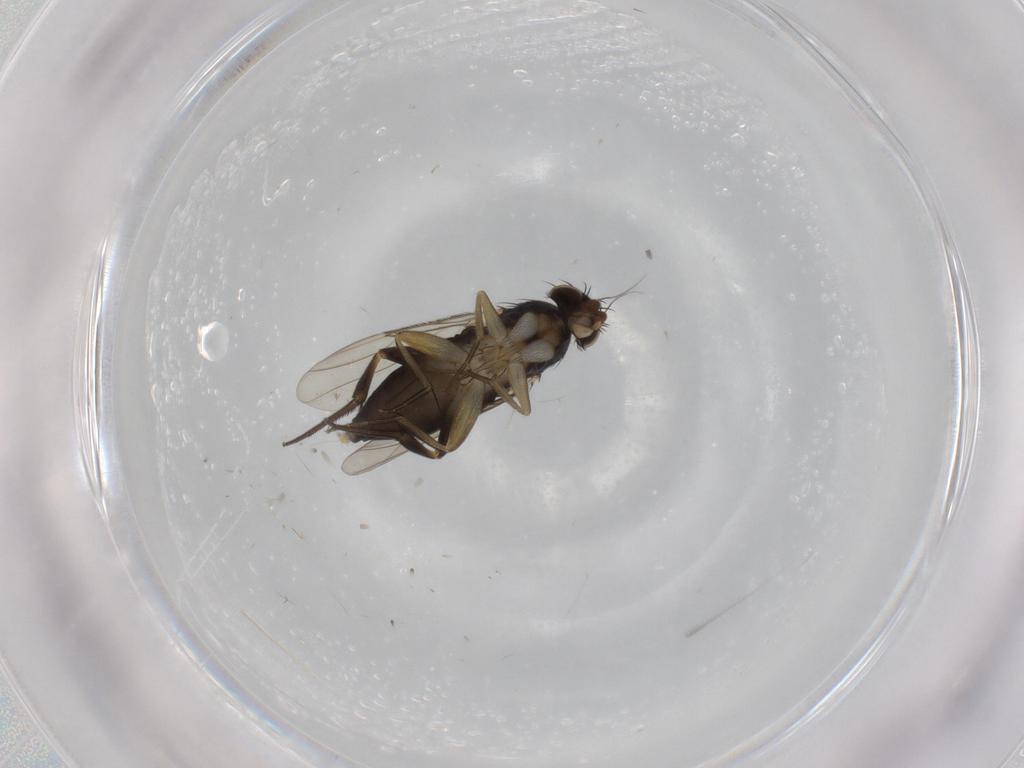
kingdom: Animalia
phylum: Arthropoda
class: Insecta
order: Diptera
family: Phoridae
